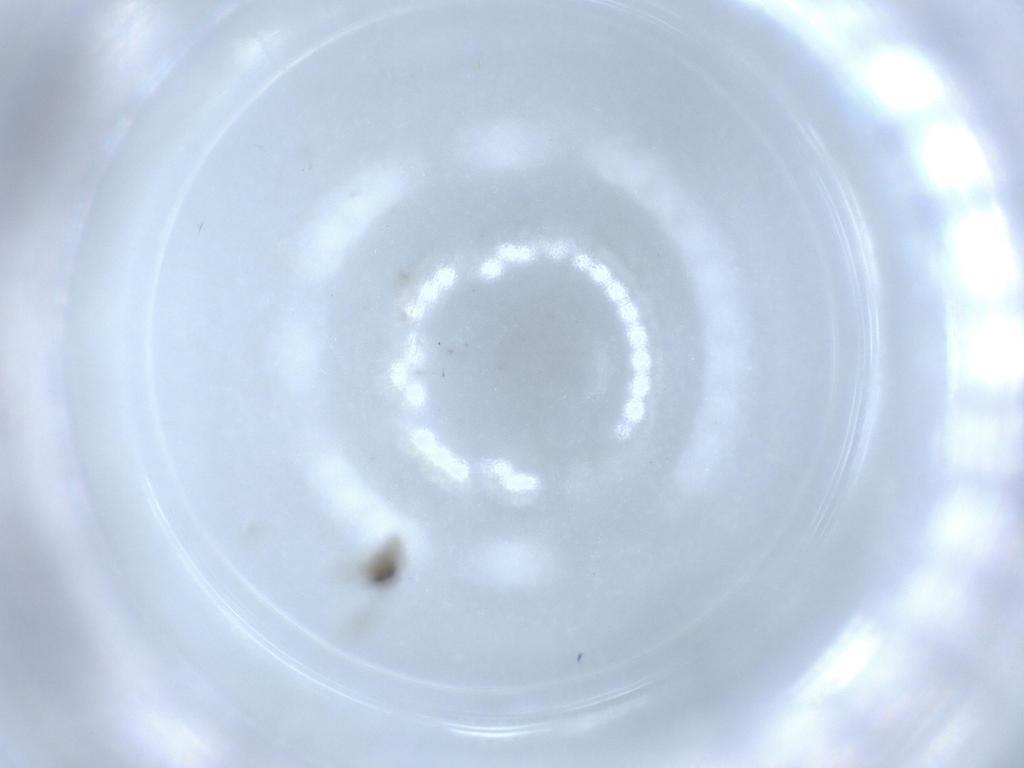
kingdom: Animalia
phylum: Arthropoda
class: Insecta
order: Diptera
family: Cecidomyiidae
